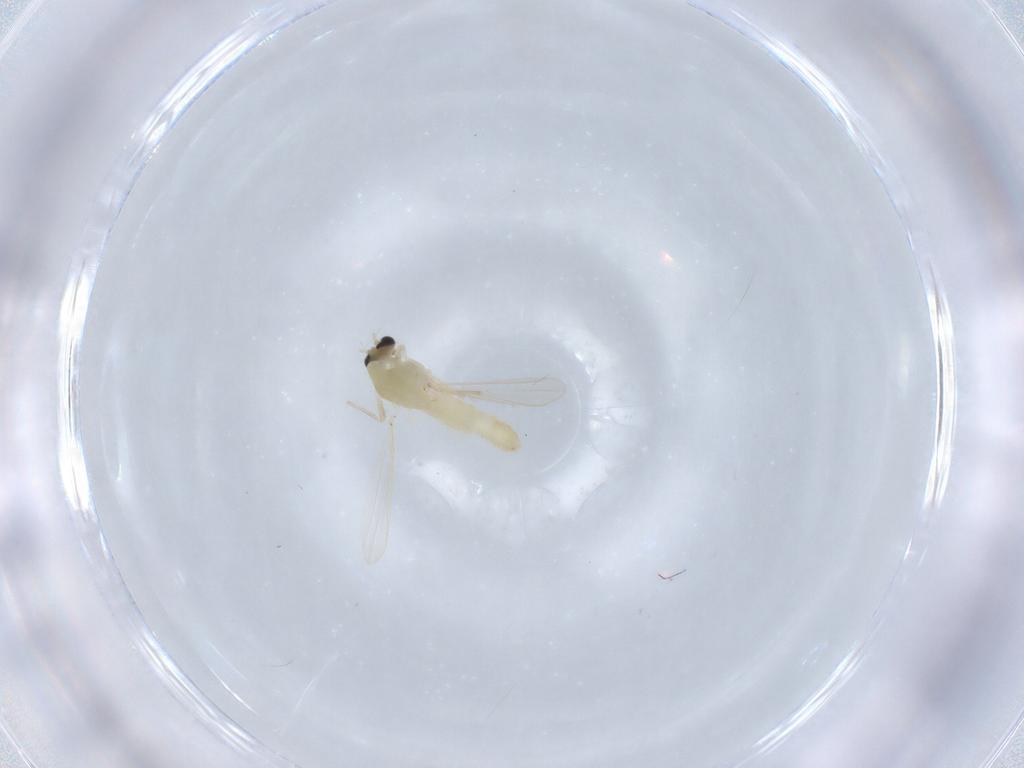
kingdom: Animalia
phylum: Arthropoda
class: Insecta
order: Diptera
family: Chironomidae
